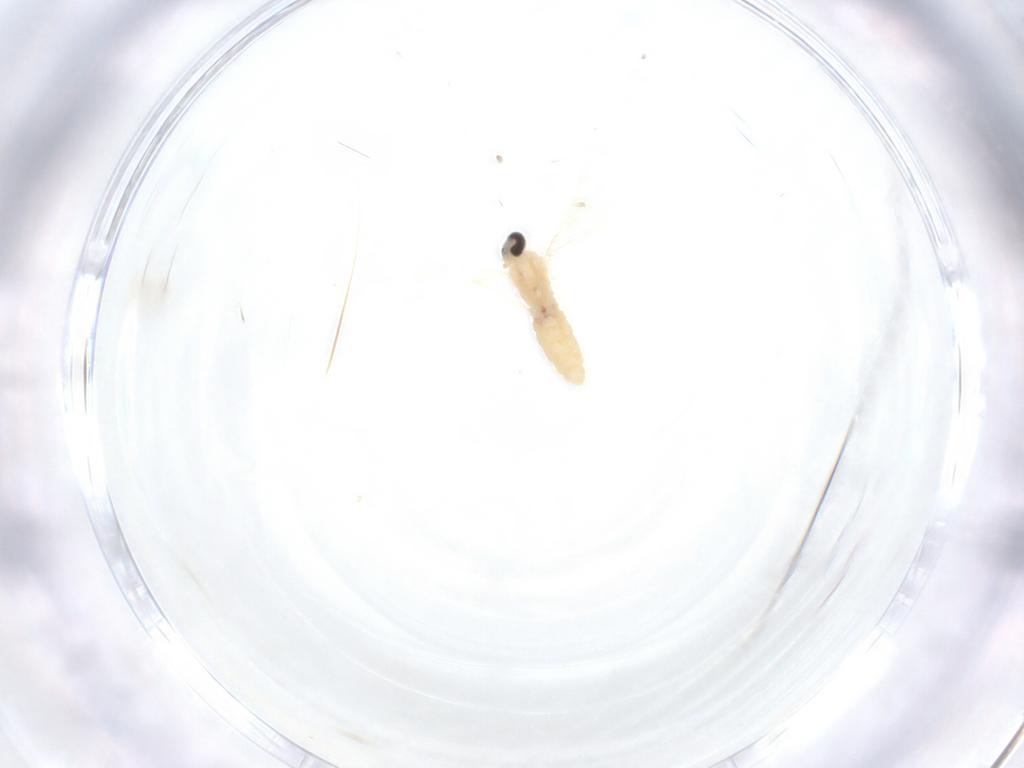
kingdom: Animalia
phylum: Arthropoda
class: Insecta
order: Diptera
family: Cecidomyiidae
